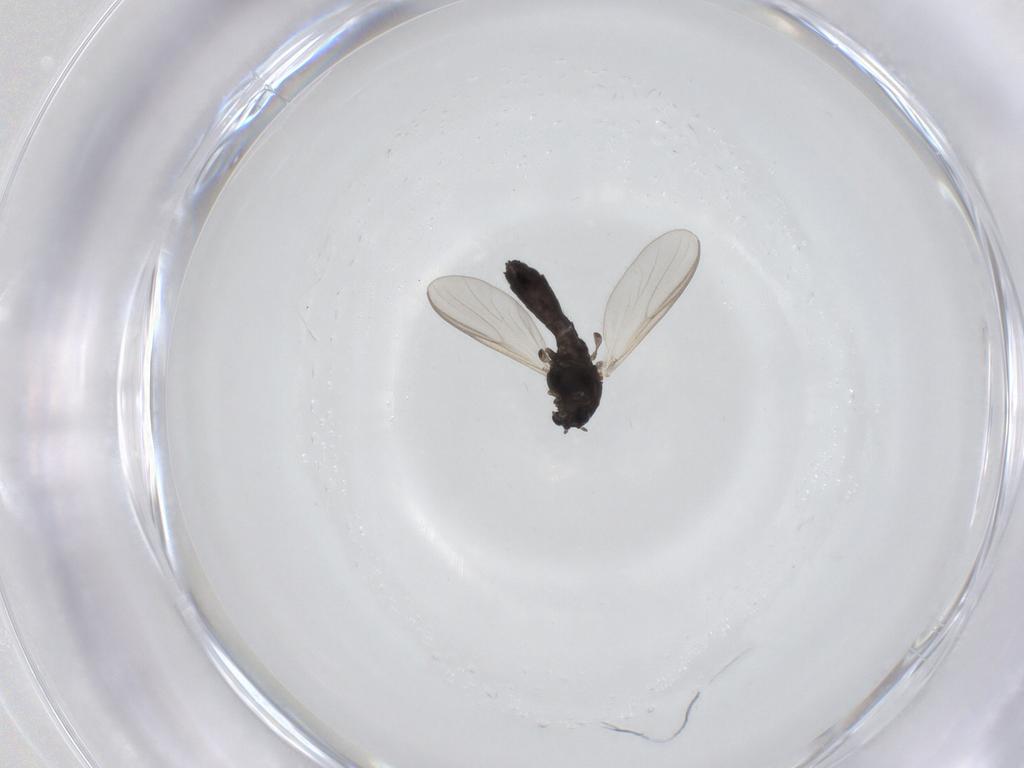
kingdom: Animalia
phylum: Arthropoda
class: Insecta
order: Diptera
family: Chironomidae
